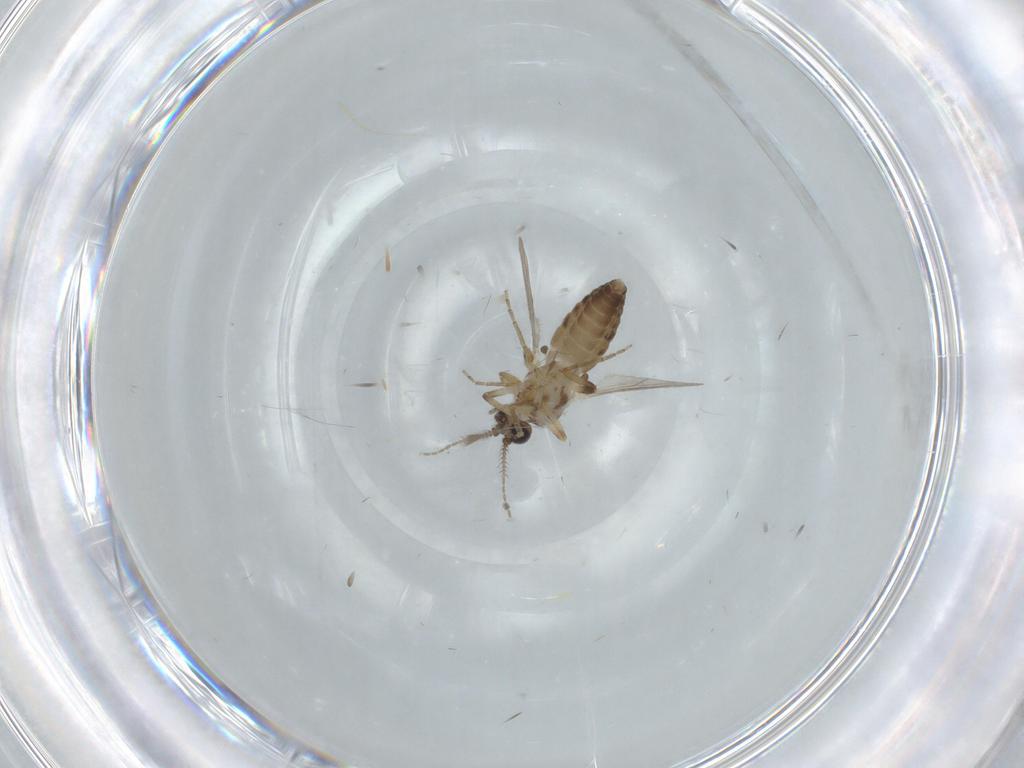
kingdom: Animalia
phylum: Arthropoda
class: Insecta
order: Diptera
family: Ceratopogonidae
